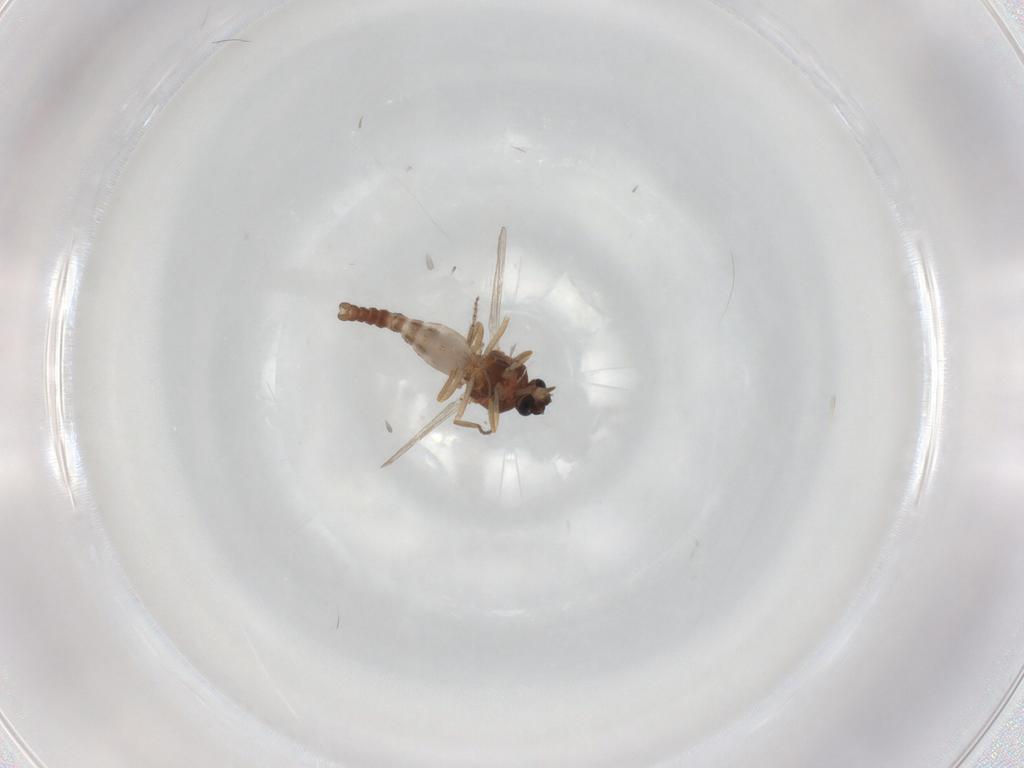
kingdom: Animalia
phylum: Arthropoda
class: Insecta
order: Diptera
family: Ceratopogonidae
